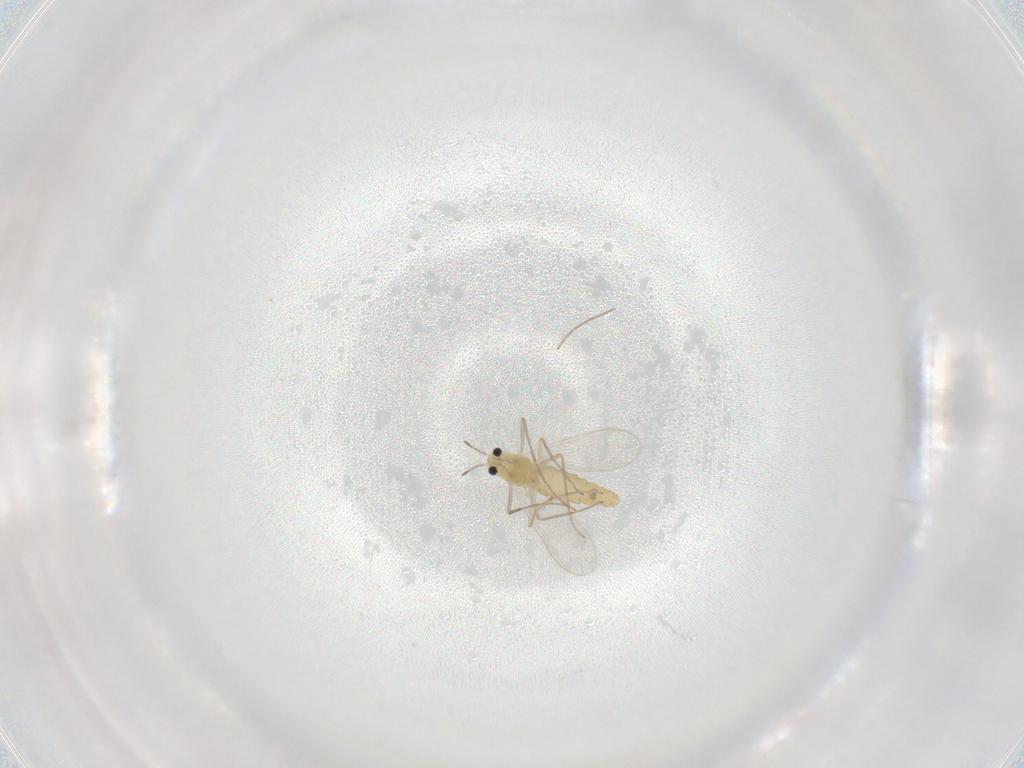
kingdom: Animalia
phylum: Arthropoda
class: Insecta
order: Diptera
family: Chironomidae
